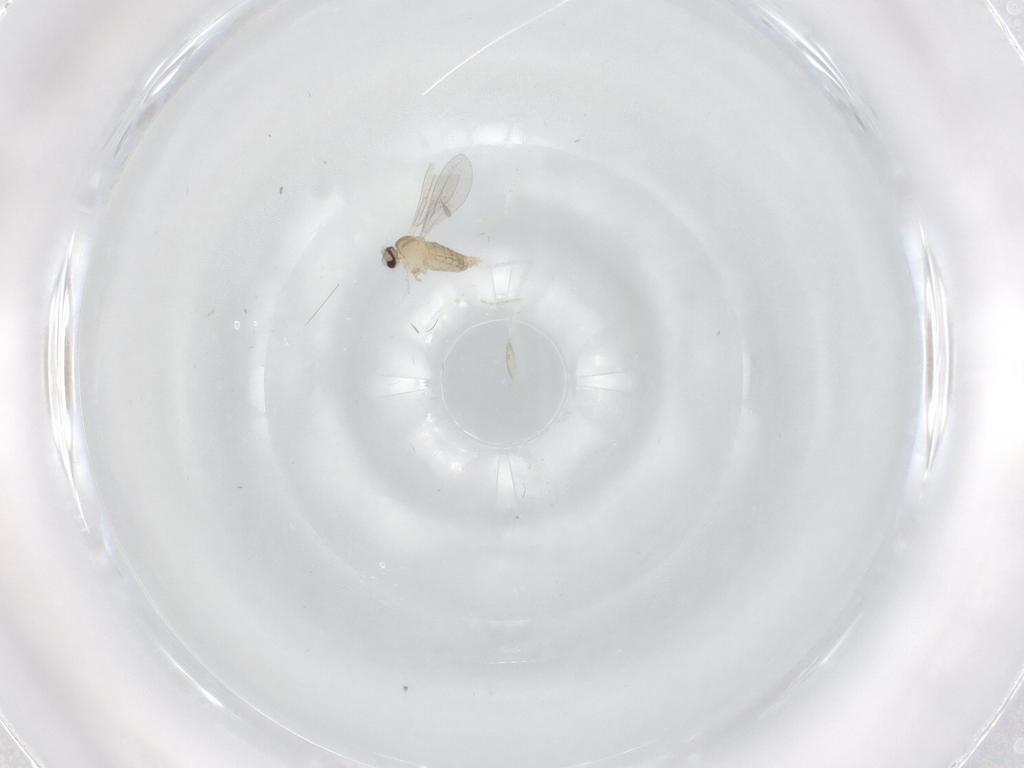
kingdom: Animalia
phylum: Arthropoda
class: Insecta
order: Diptera
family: Cecidomyiidae
